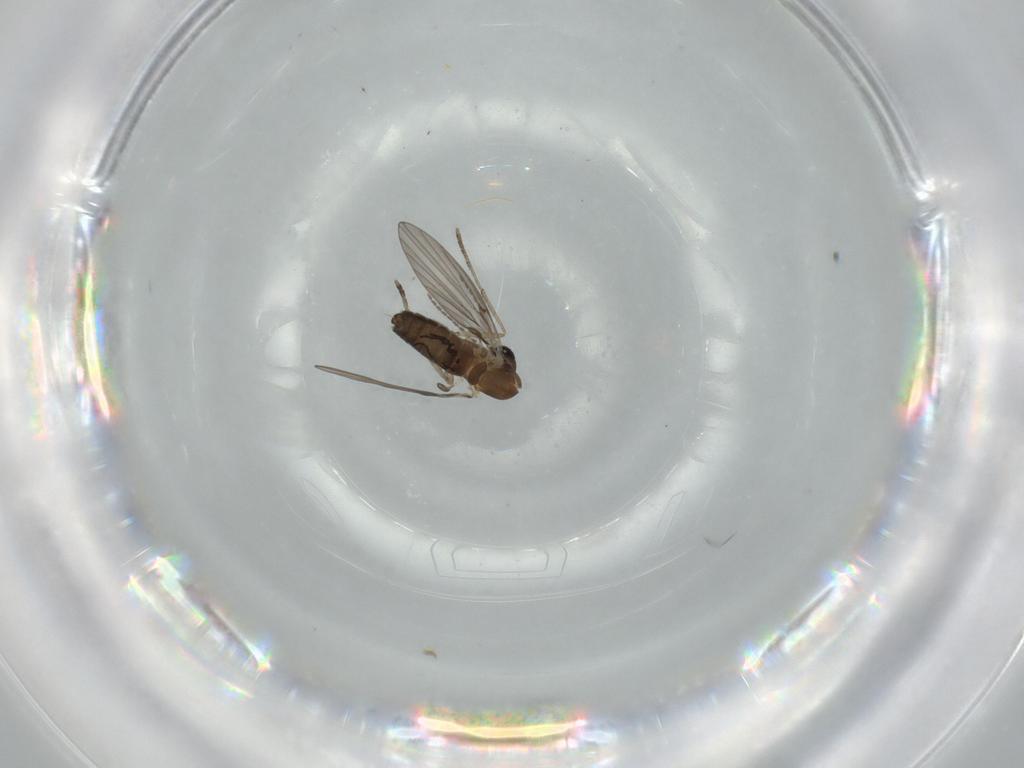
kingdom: Animalia
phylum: Arthropoda
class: Insecta
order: Diptera
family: Psychodidae
